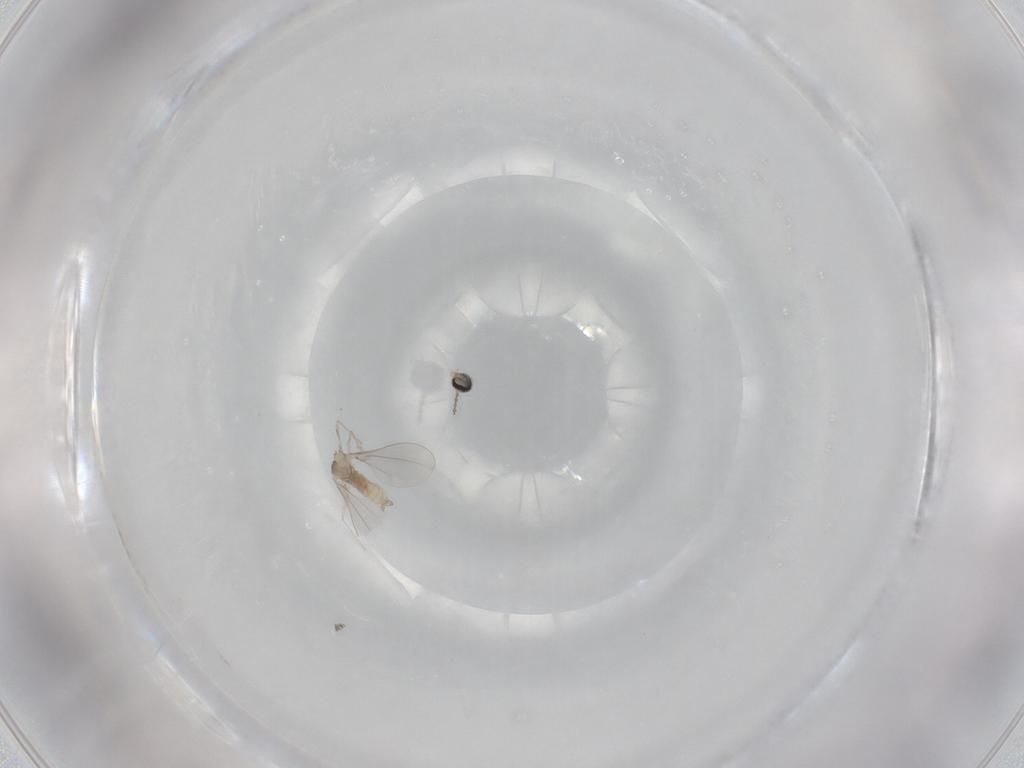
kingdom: Animalia
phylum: Arthropoda
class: Insecta
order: Diptera
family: Cecidomyiidae
